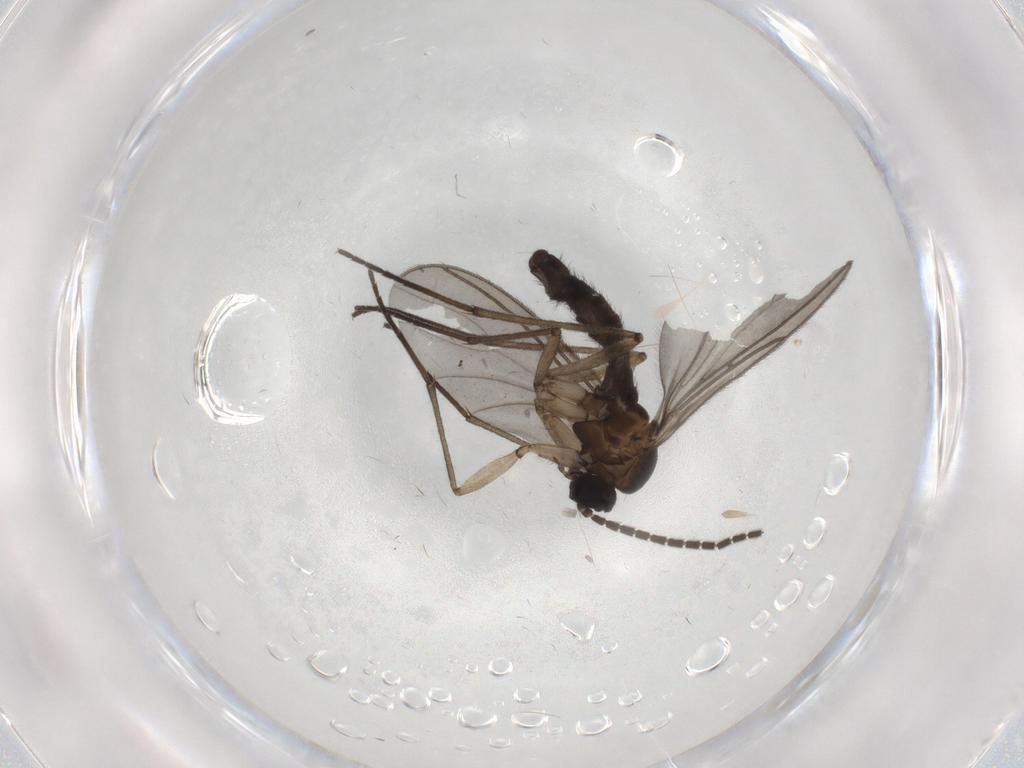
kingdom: Animalia
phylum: Arthropoda
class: Insecta
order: Diptera
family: Sciaridae
